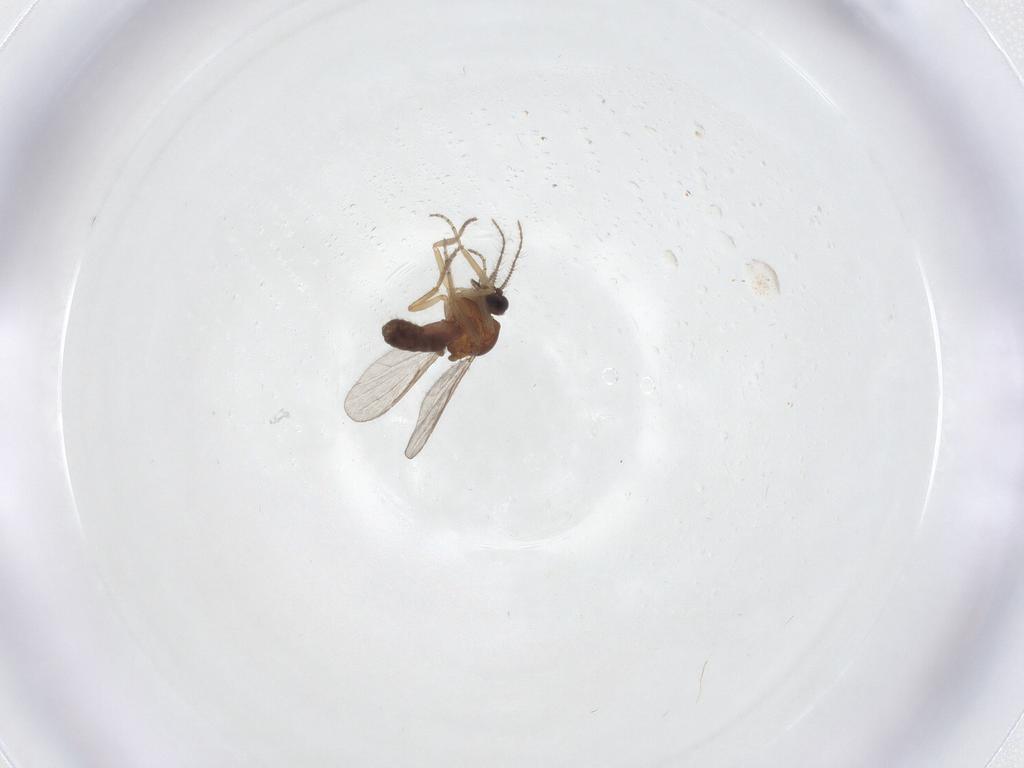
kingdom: Animalia
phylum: Arthropoda
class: Insecta
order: Diptera
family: Ceratopogonidae
